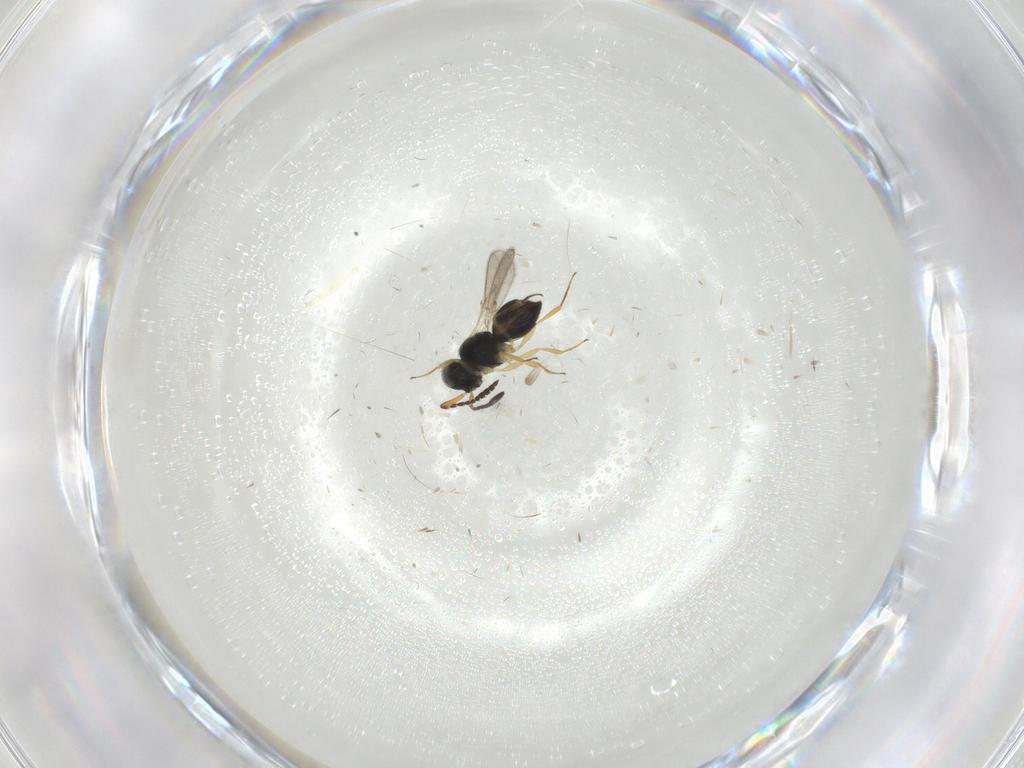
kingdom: Animalia
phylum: Arthropoda
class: Insecta
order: Hymenoptera
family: Scelionidae
